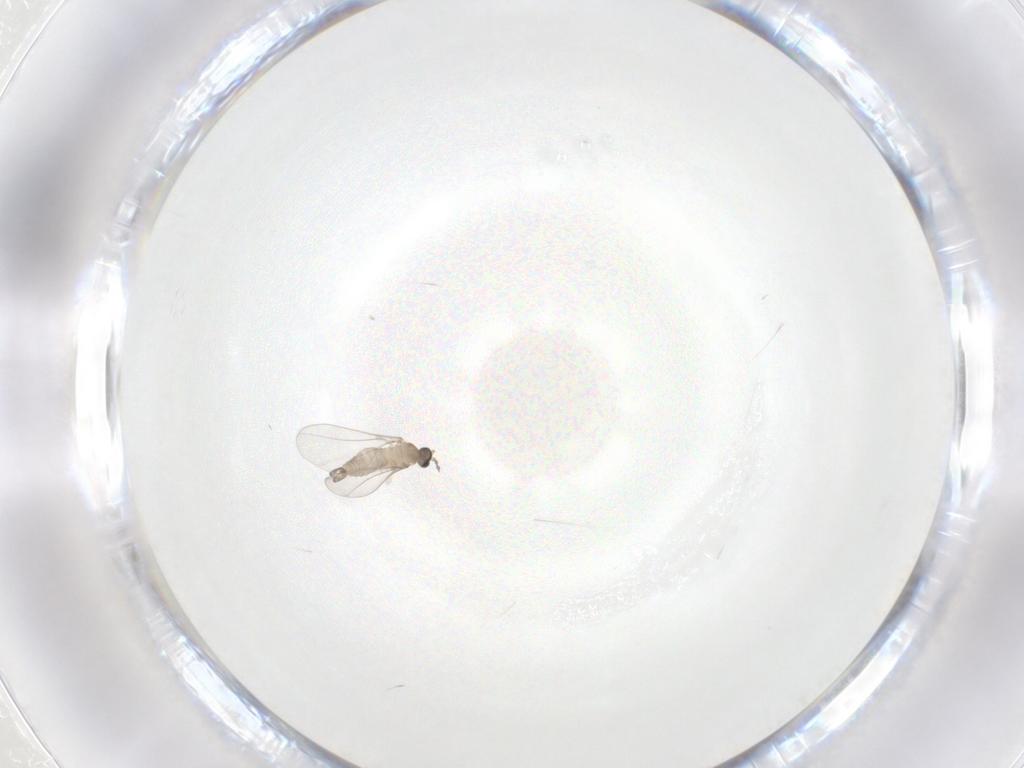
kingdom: Animalia
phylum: Arthropoda
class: Insecta
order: Diptera
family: Cecidomyiidae
